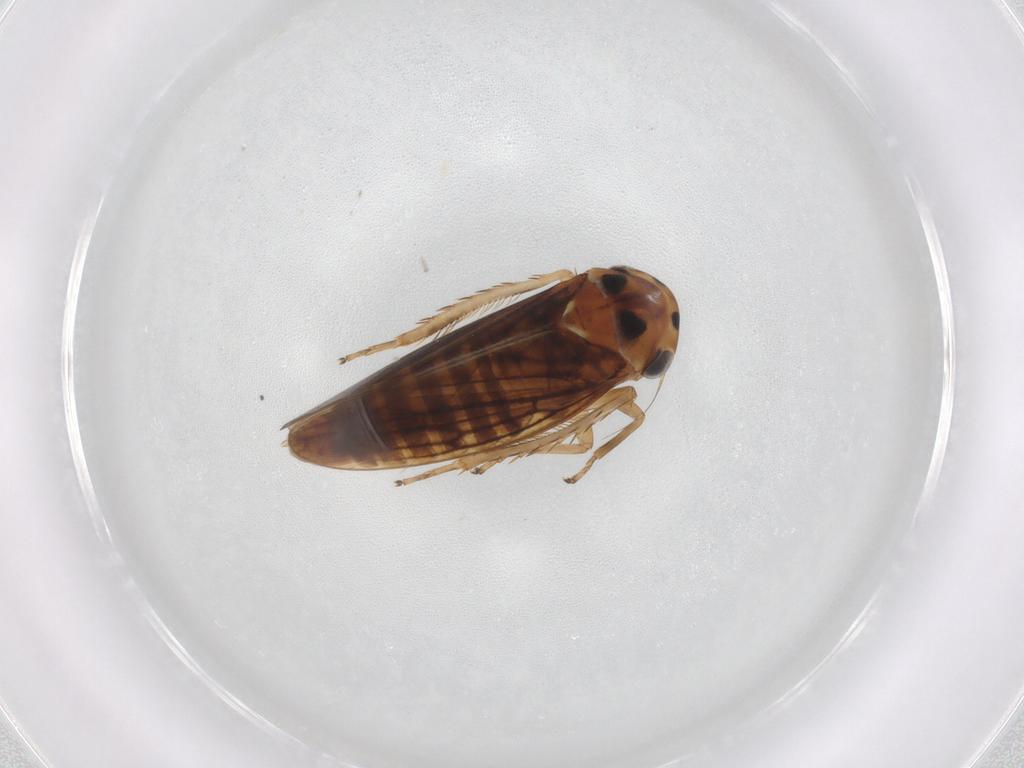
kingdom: Animalia
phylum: Arthropoda
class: Insecta
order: Hemiptera
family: Cicadellidae
